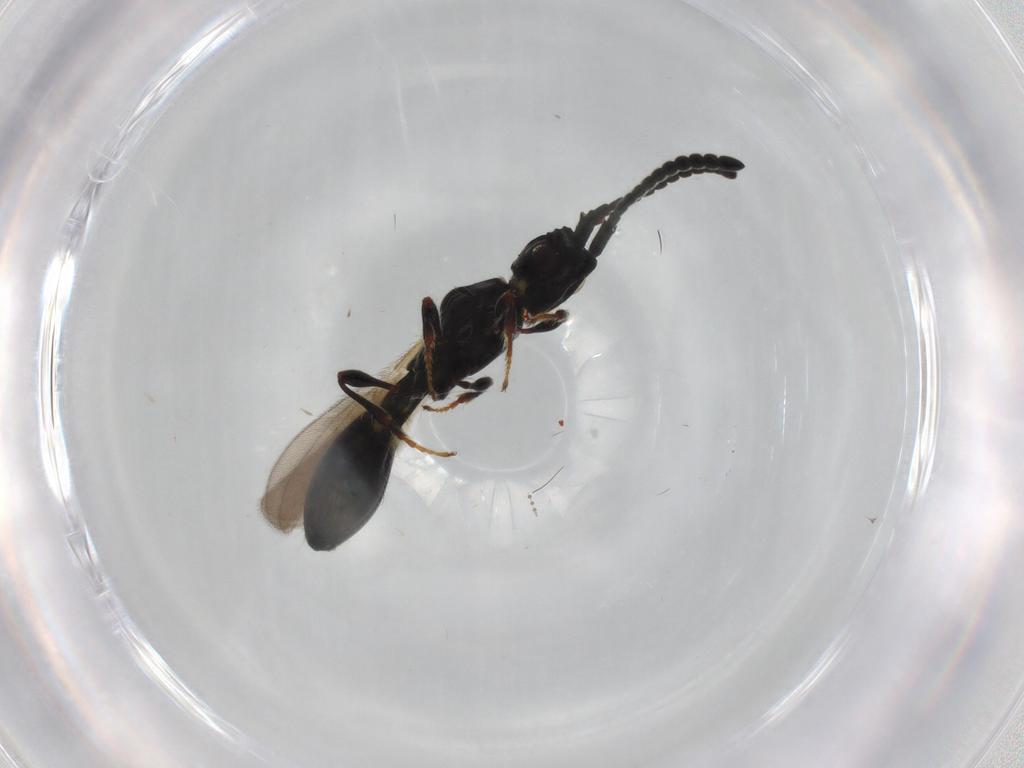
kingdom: Animalia
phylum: Arthropoda
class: Insecta
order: Hymenoptera
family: Diapriidae
